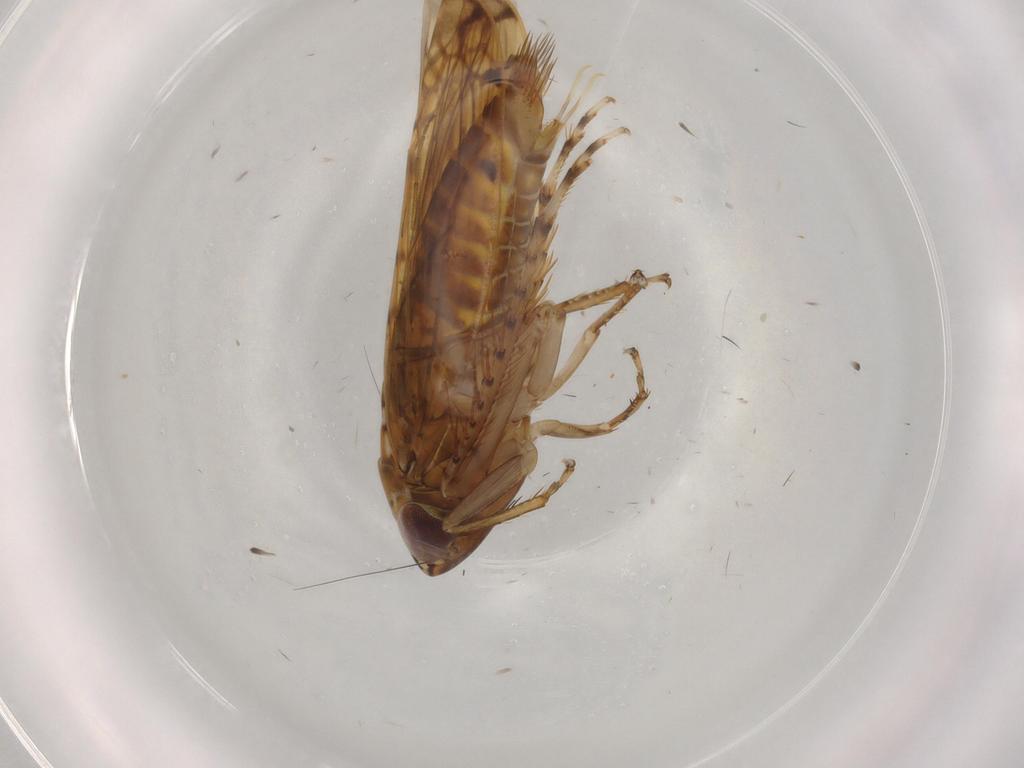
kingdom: Animalia
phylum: Arthropoda
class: Insecta
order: Hemiptera
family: Cicadellidae
